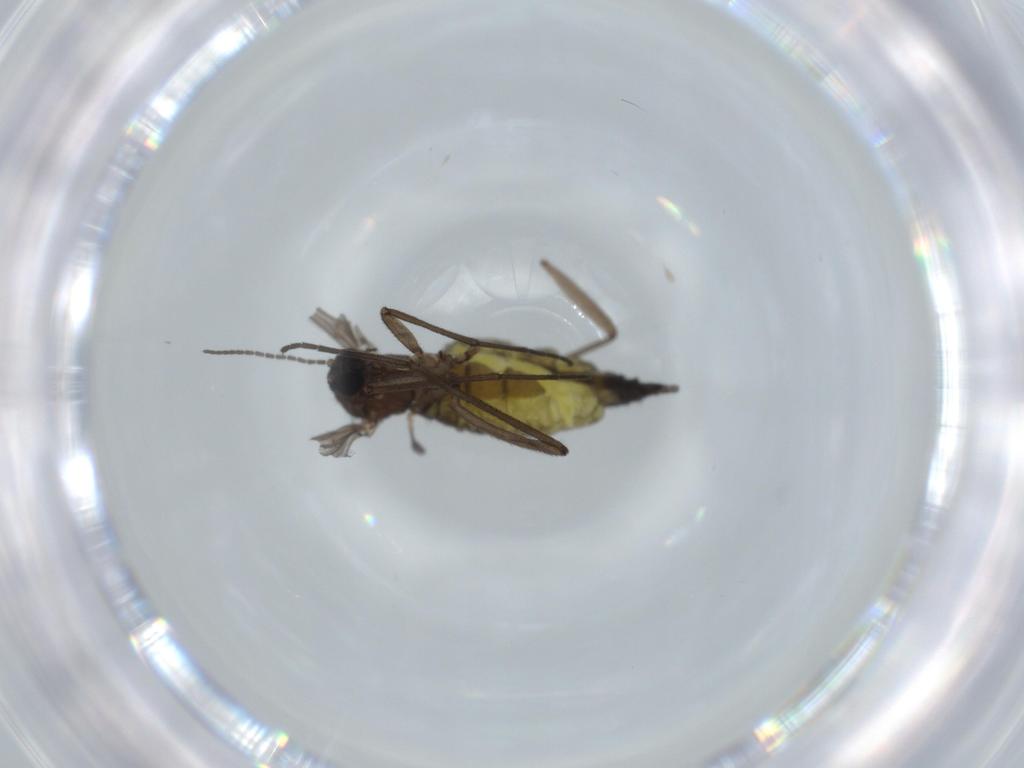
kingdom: Animalia
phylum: Arthropoda
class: Insecta
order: Diptera
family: Sciaridae
